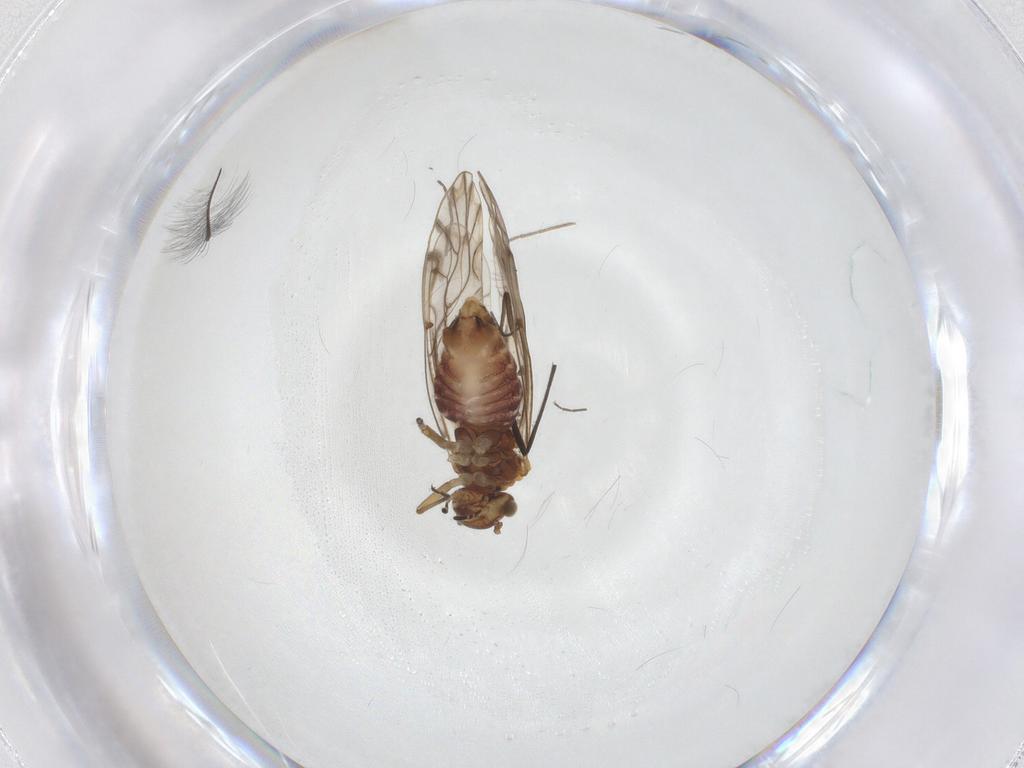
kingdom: Animalia
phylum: Arthropoda
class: Insecta
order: Psocodea
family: Lachesillidae
